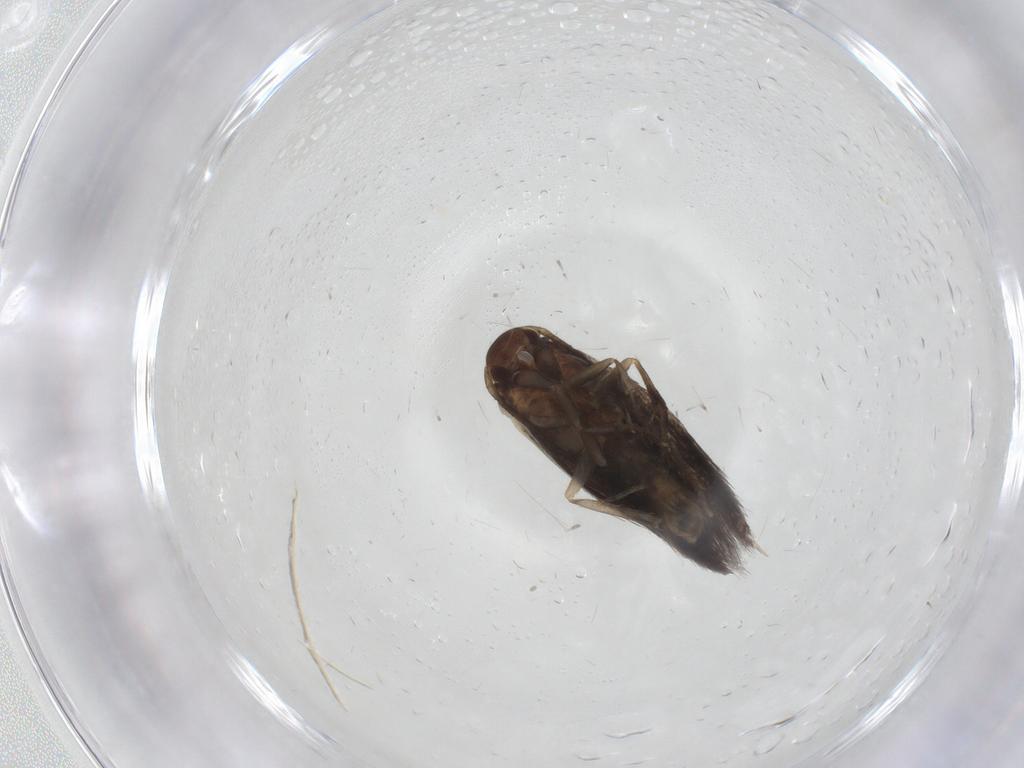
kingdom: Animalia
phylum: Arthropoda
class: Insecta
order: Lepidoptera
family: Elachistidae
